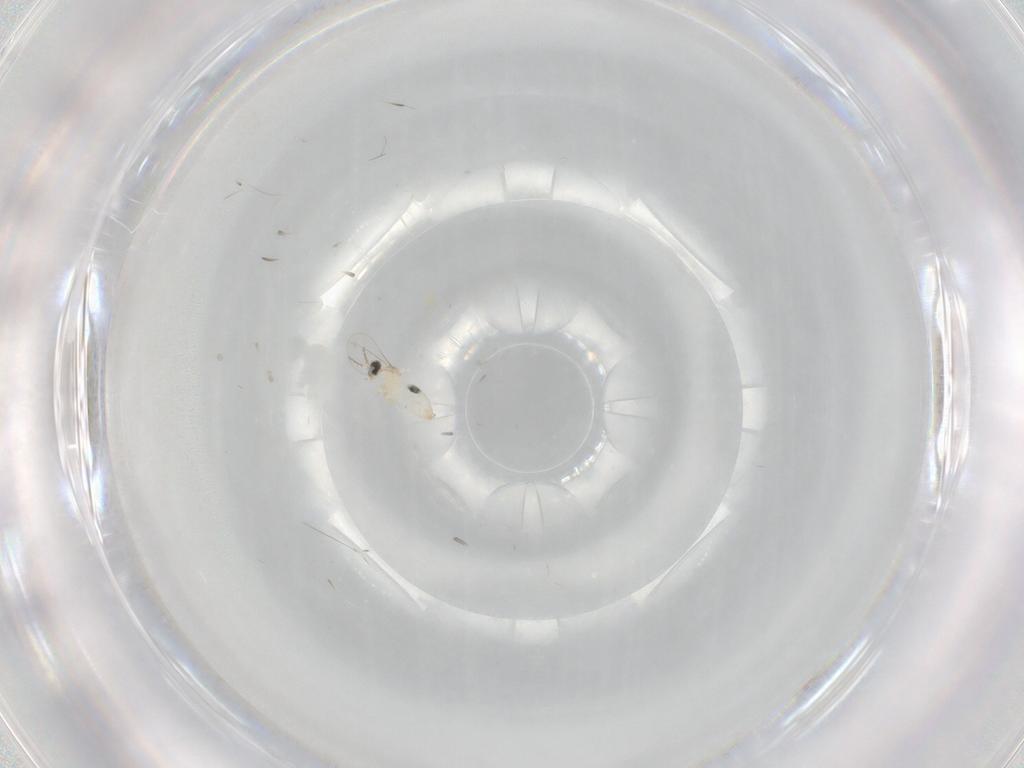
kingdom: Animalia
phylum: Arthropoda
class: Insecta
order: Diptera
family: Cecidomyiidae
